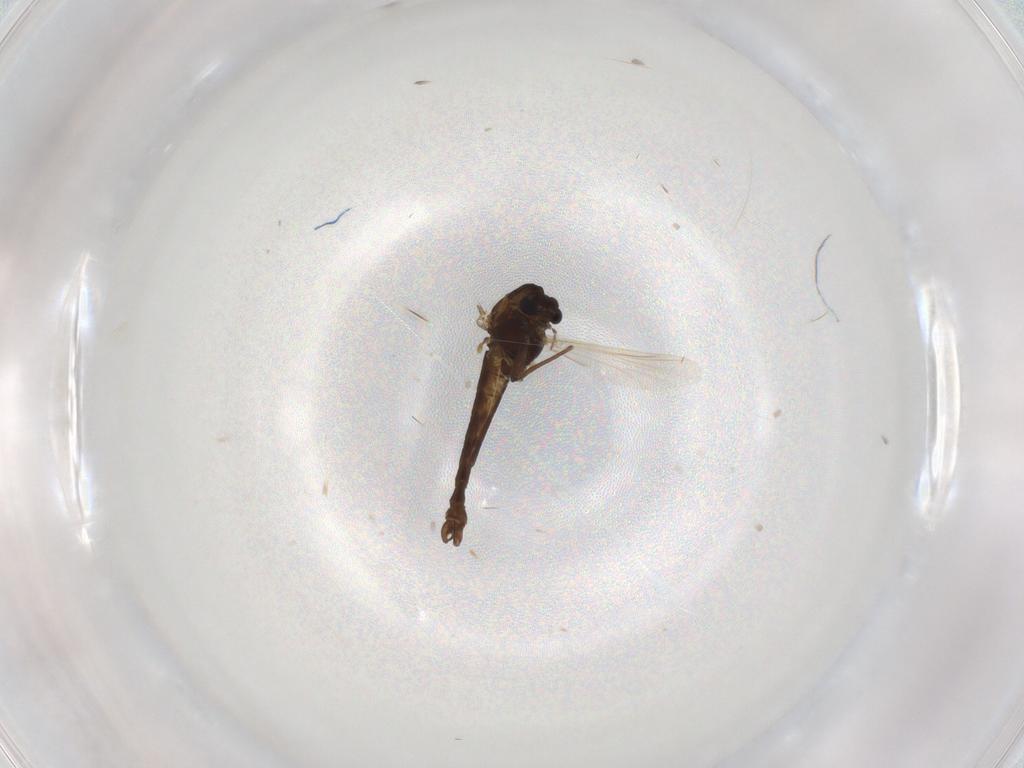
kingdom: Animalia
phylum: Arthropoda
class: Insecta
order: Diptera
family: Chironomidae
